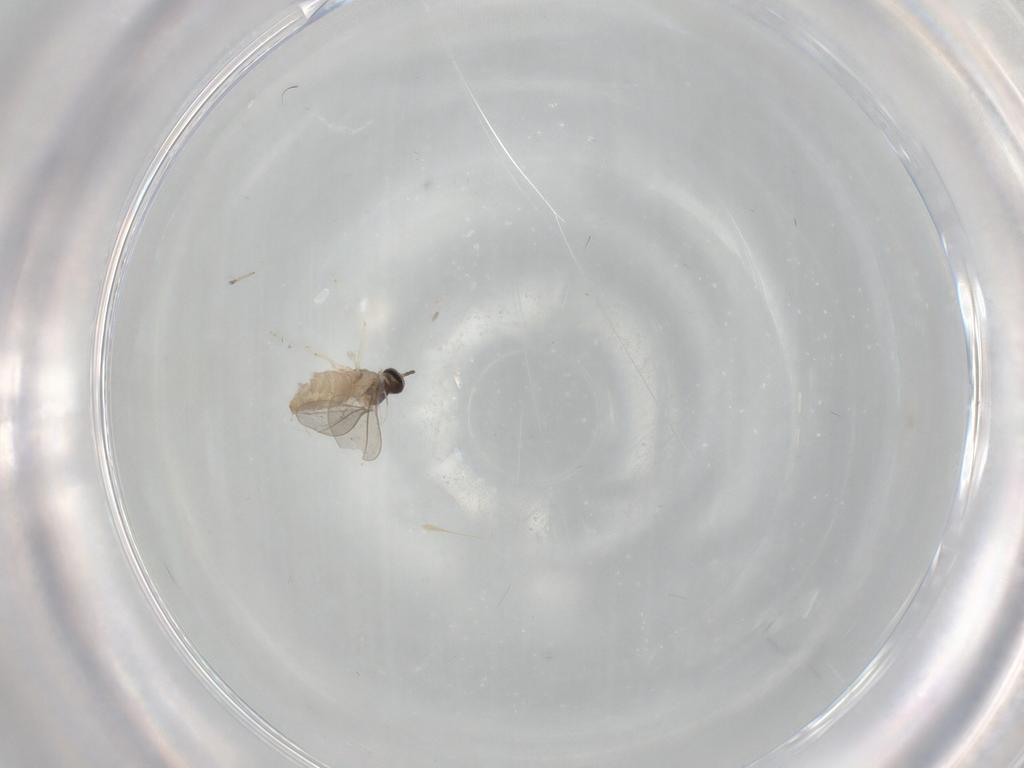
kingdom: Animalia
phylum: Arthropoda
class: Insecta
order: Diptera
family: Cecidomyiidae
